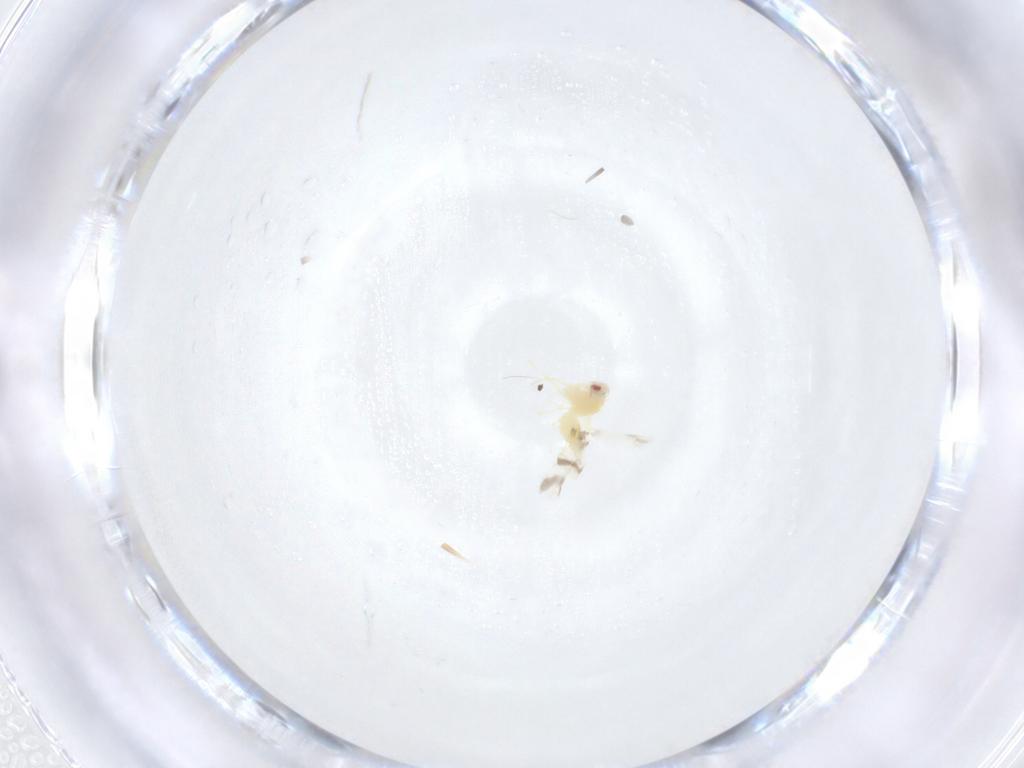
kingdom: Animalia
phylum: Arthropoda
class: Insecta
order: Hemiptera
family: Aleyrodidae
